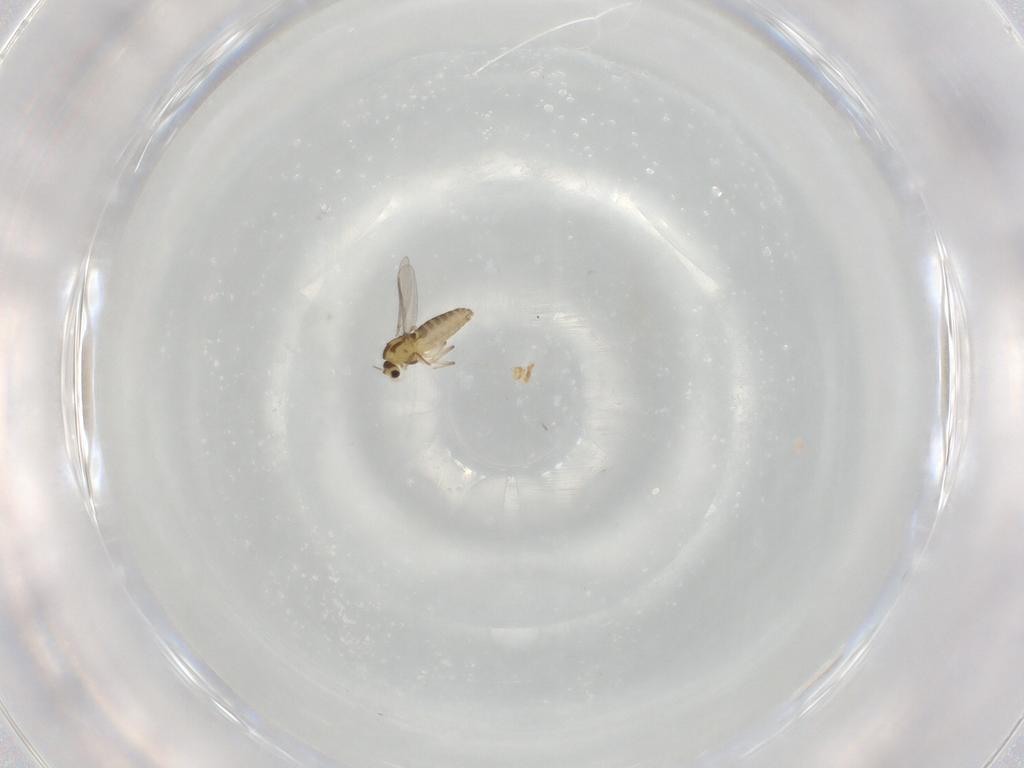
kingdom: Animalia
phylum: Arthropoda
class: Insecta
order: Diptera
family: Chironomidae
